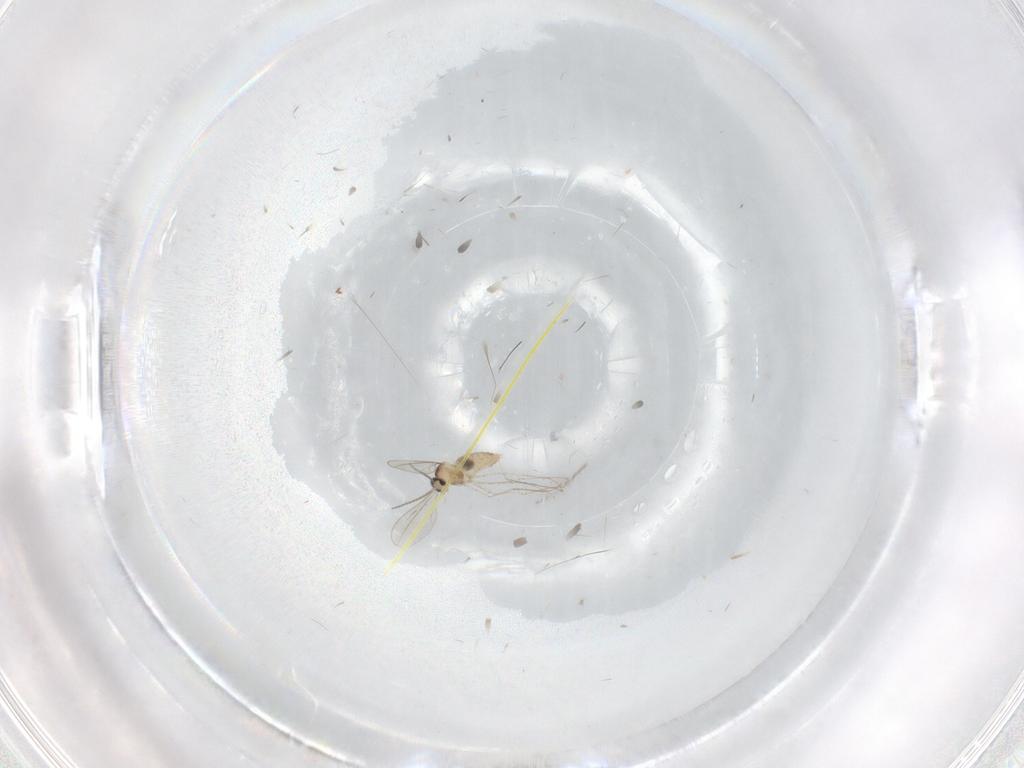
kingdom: Animalia
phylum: Arthropoda
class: Insecta
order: Diptera
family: Cecidomyiidae
